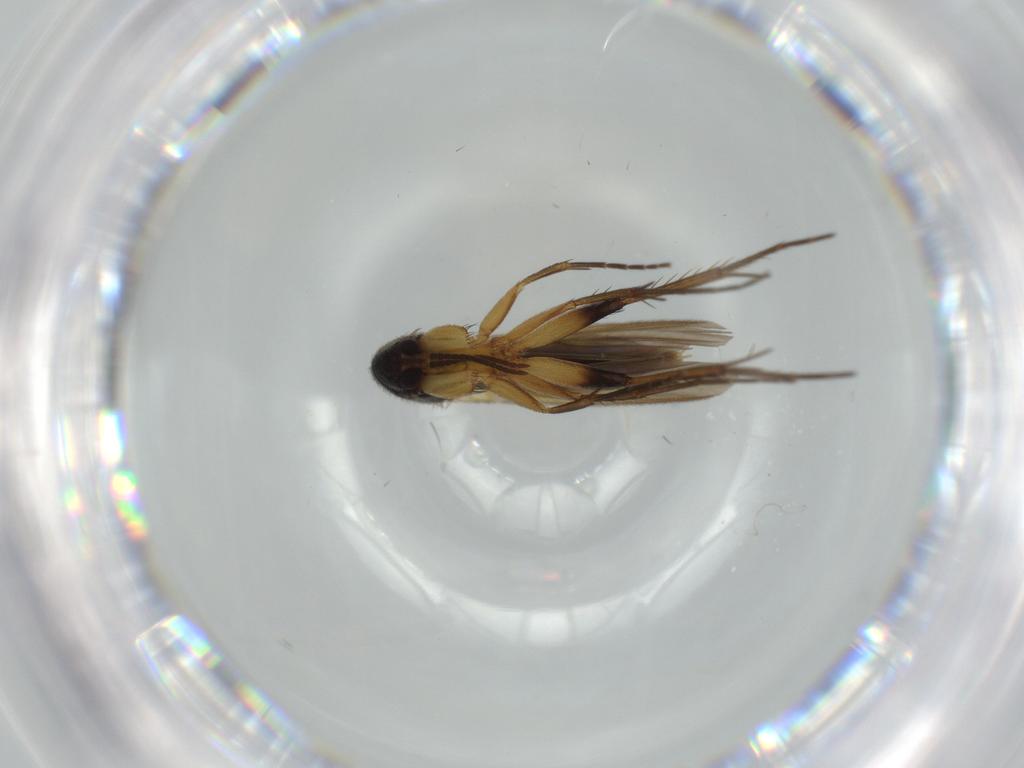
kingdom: Animalia
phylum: Arthropoda
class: Insecta
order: Diptera
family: Mycetophilidae
